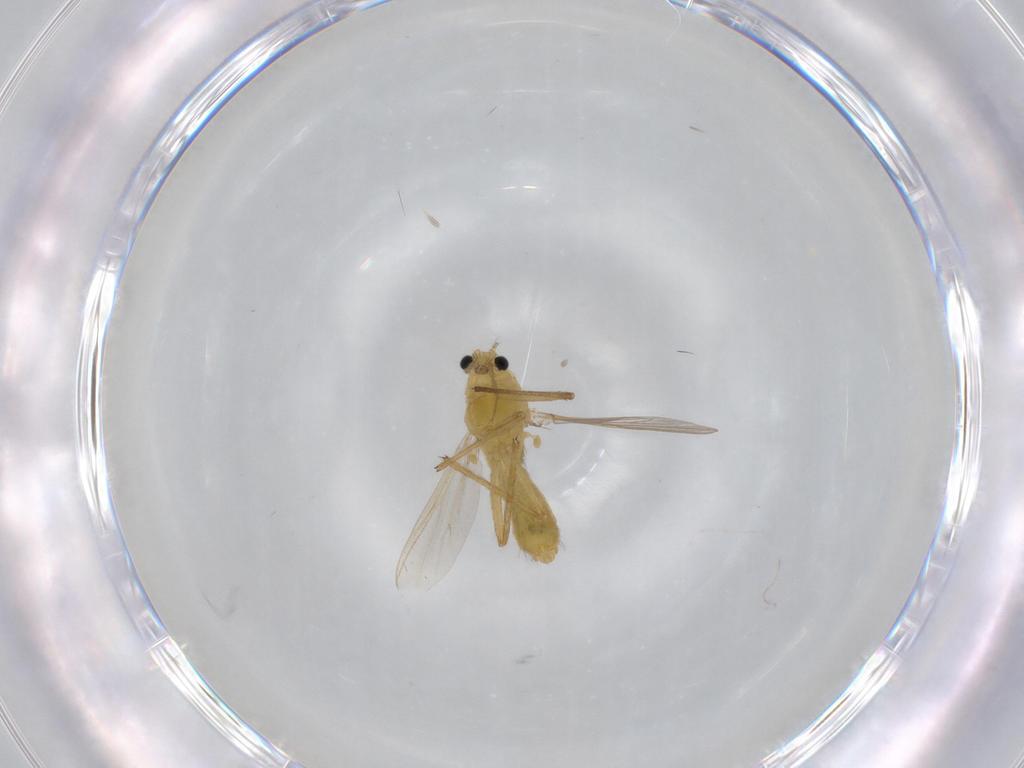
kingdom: Animalia
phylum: Arthropoda
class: Insecta
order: Diptera
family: Chironomidae
